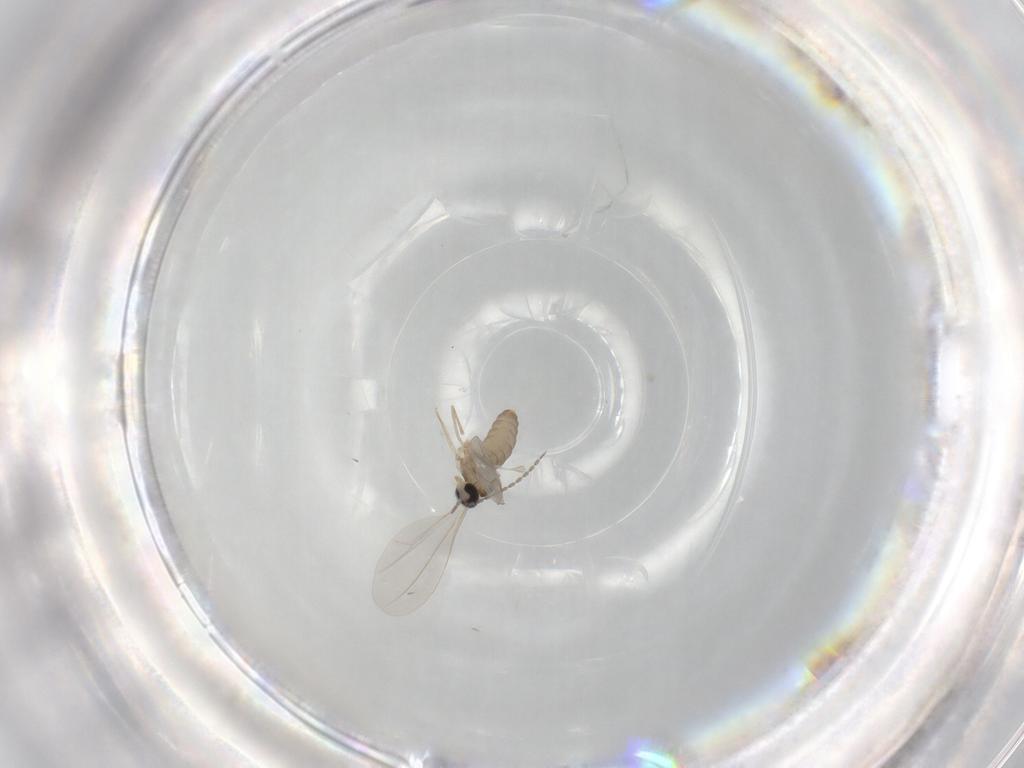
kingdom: Animalia
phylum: Arthropoda
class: Insecta
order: Diptera
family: Cecidomyiidae
